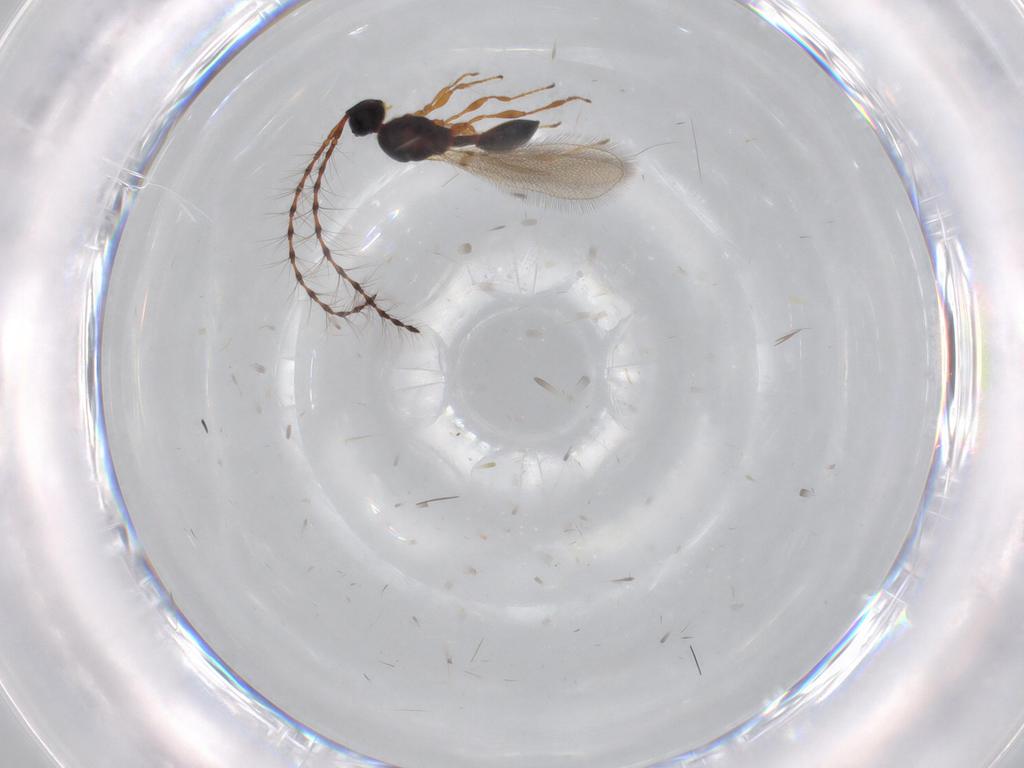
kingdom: Animalia
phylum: Arthropoda
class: Insecta
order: Hymenoptera
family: Diapriidae
